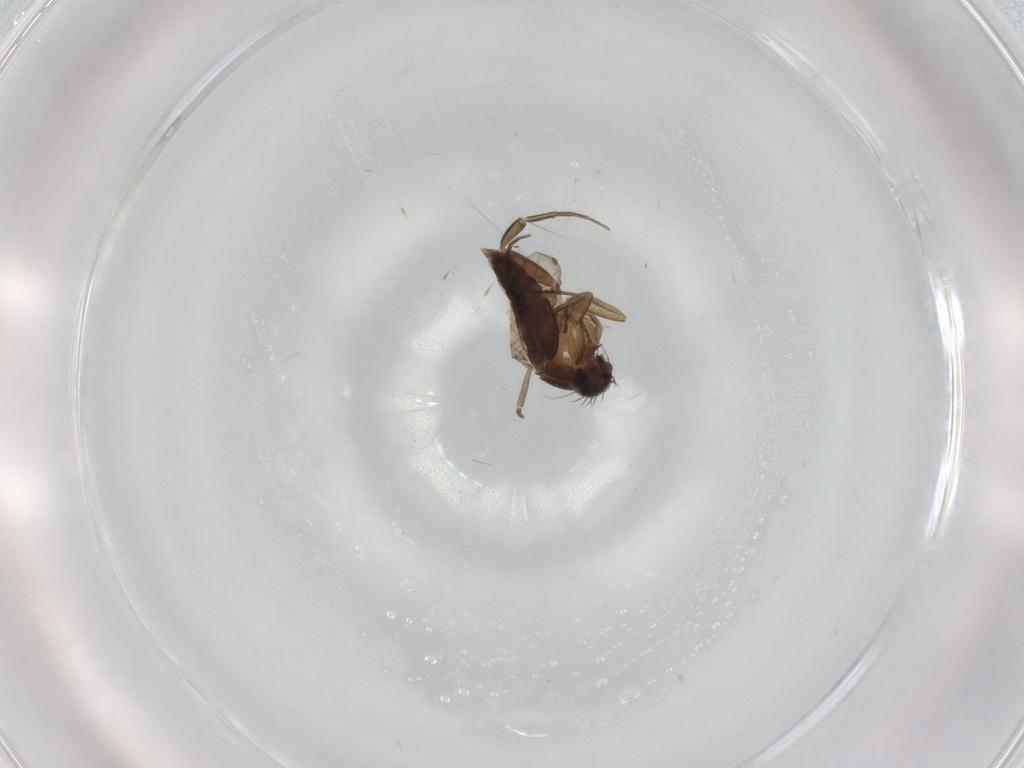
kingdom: Animalia
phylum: Arthropoda
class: Insecta
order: Diptera
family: Phoridae
